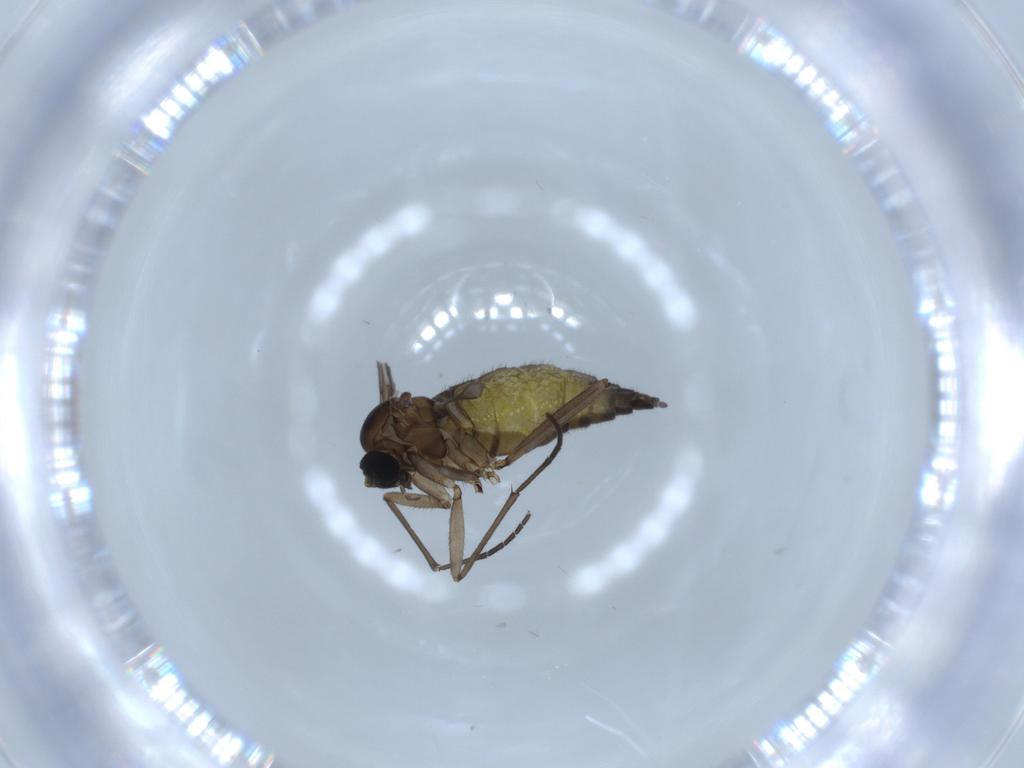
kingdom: Animalia
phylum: Arthropoda
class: Insecta
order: Diptera
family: Sciaridae
